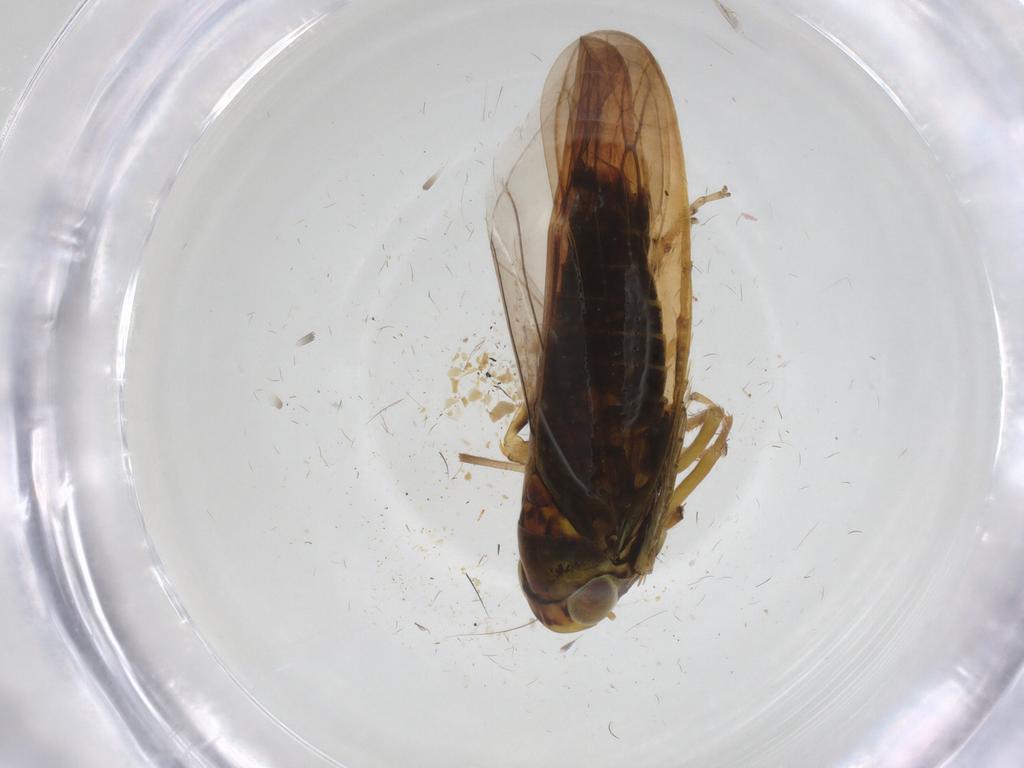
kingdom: Animalia
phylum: Arthropoda
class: Insecta
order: Hemiptera
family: Cicadellidae
